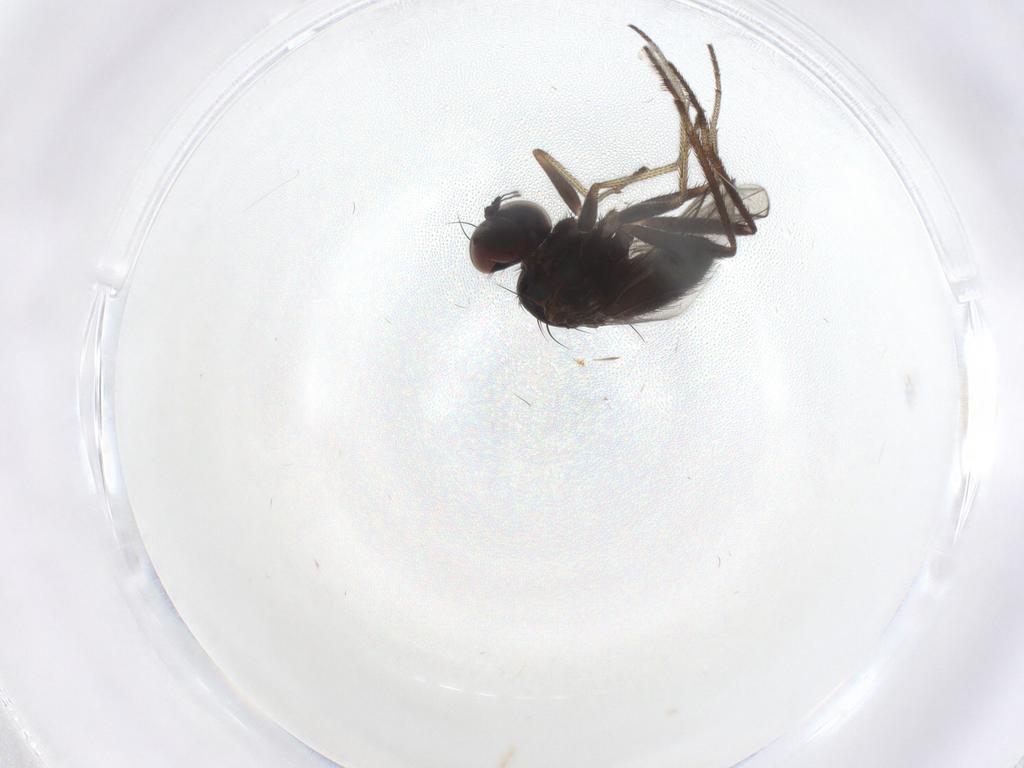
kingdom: Animalia
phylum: Arthropoda
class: Insecta
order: Diptera
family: Dolichopodidae
